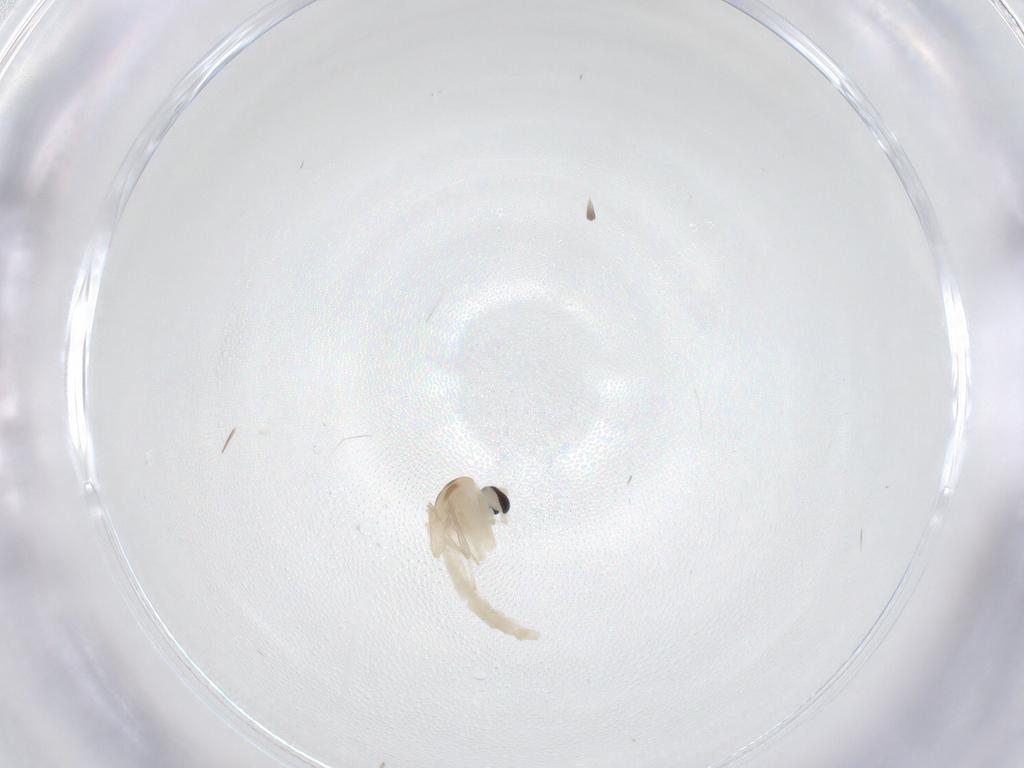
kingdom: Animalia
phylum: Arthropoda
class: Insecta
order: Diptera
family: Chironomidae
